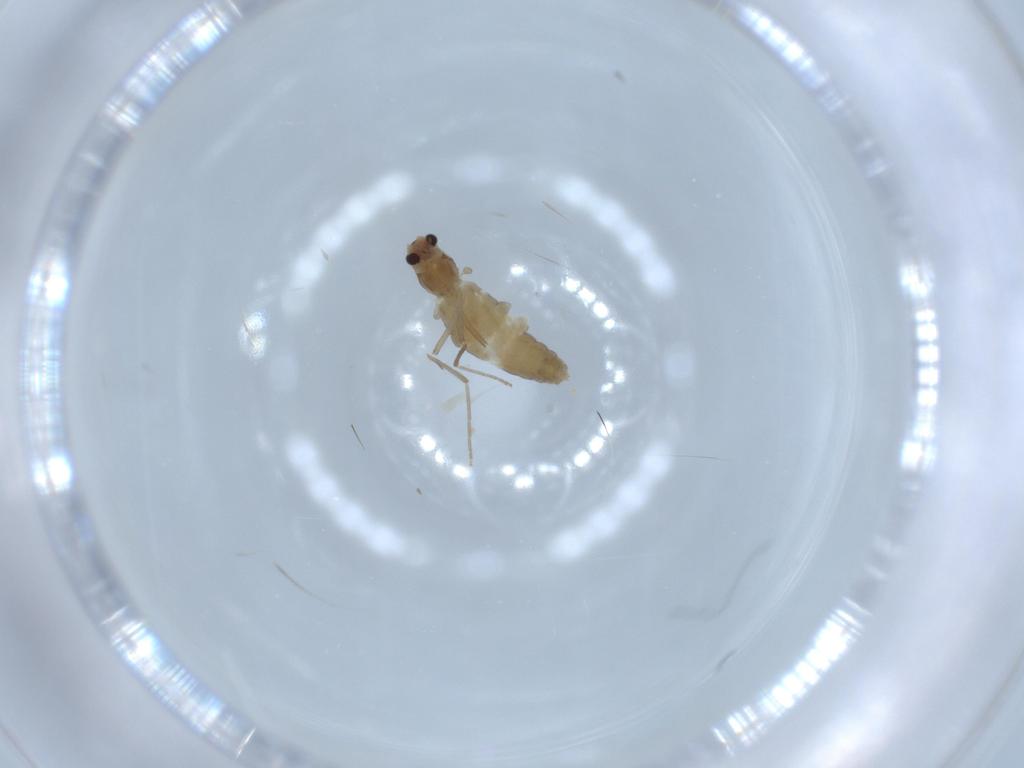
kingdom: Animalia
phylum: Arthropoda
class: Insecta
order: Diptera
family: Chironomidae
